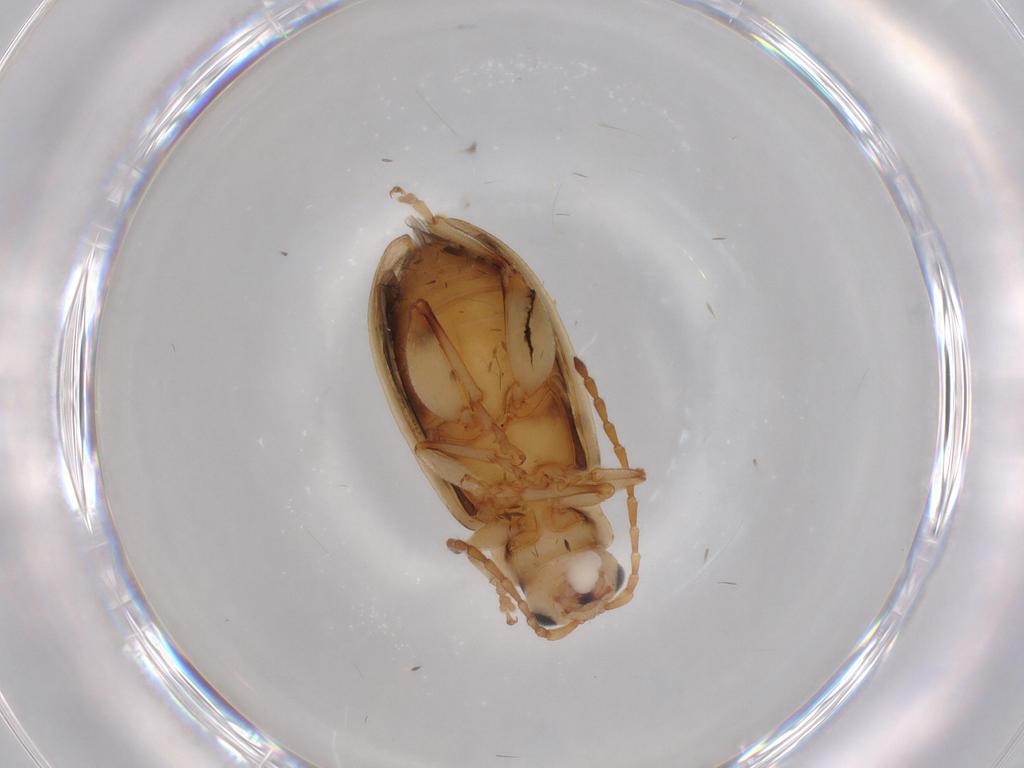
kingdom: Animalia
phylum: Arthropoda
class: Insecta
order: Coleoptera
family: Chrysomelidae
